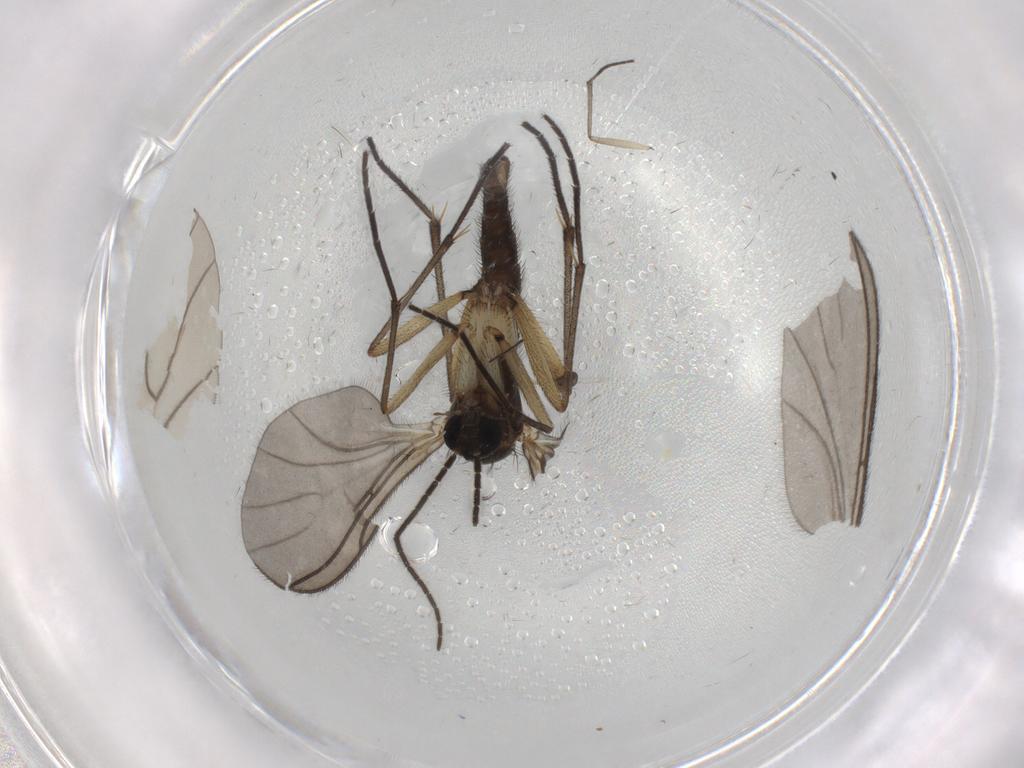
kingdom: Animalia
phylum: Arthropoda
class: Insecta
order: Diptera
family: Sciaridae
